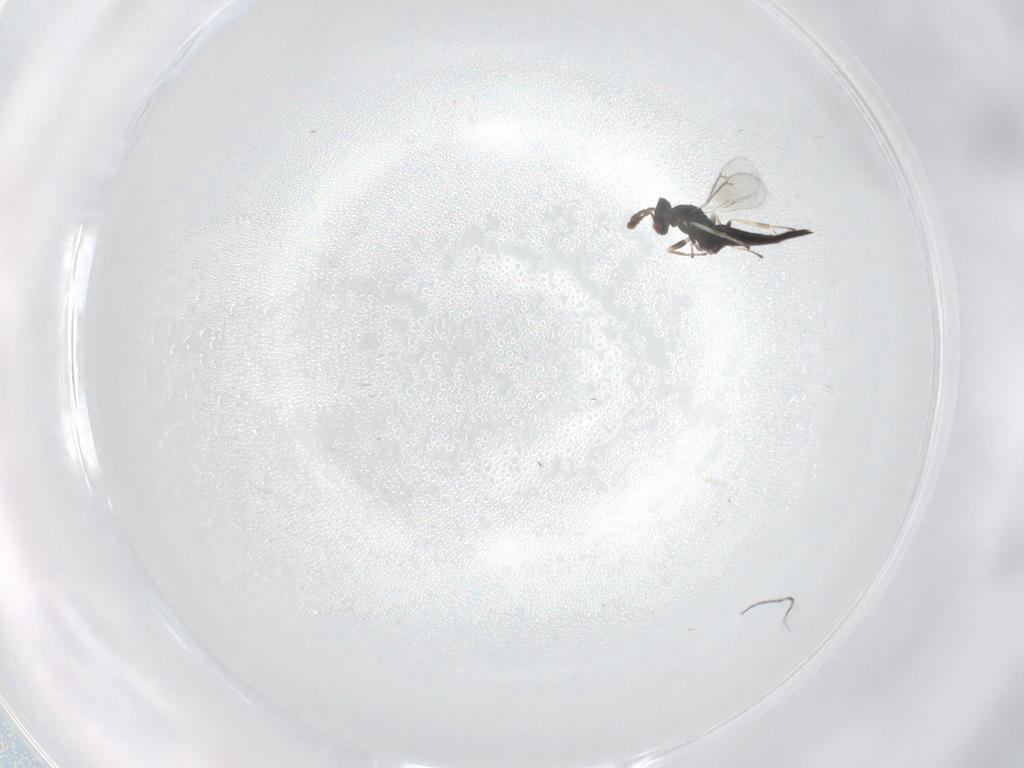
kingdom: Animalia
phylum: Arthropoda
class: Insecta
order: Hymenoptera
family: Eulophidae
